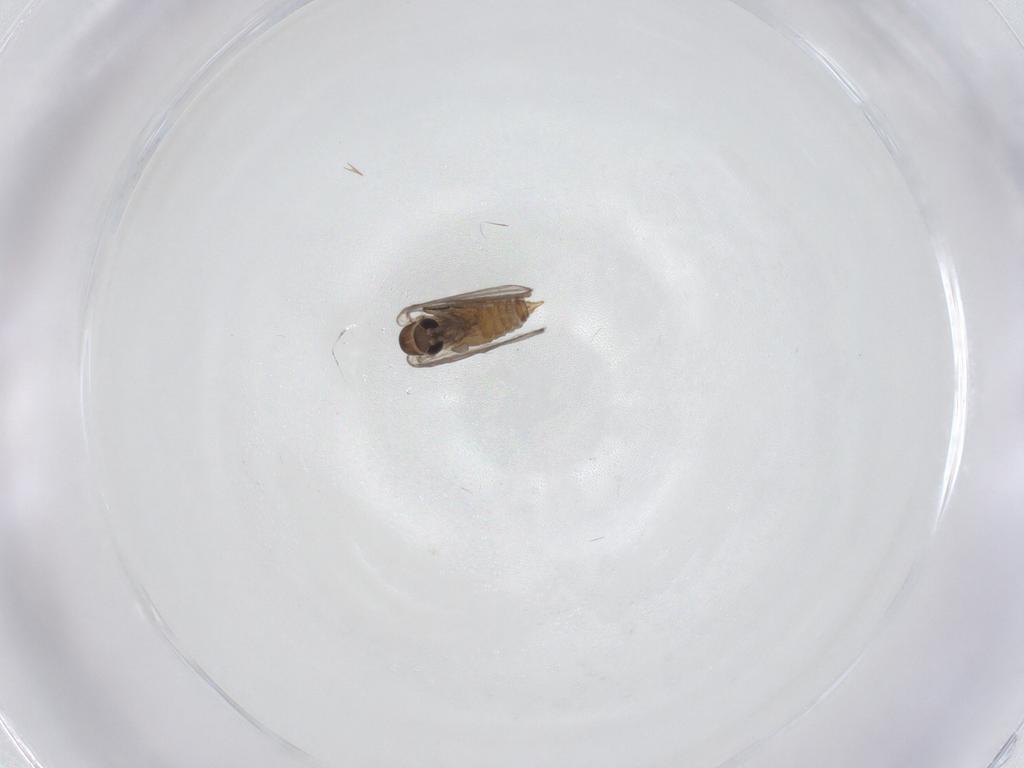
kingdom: Animalia
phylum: Arthropoda
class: Insecta
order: Diptera
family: Psychodidae
